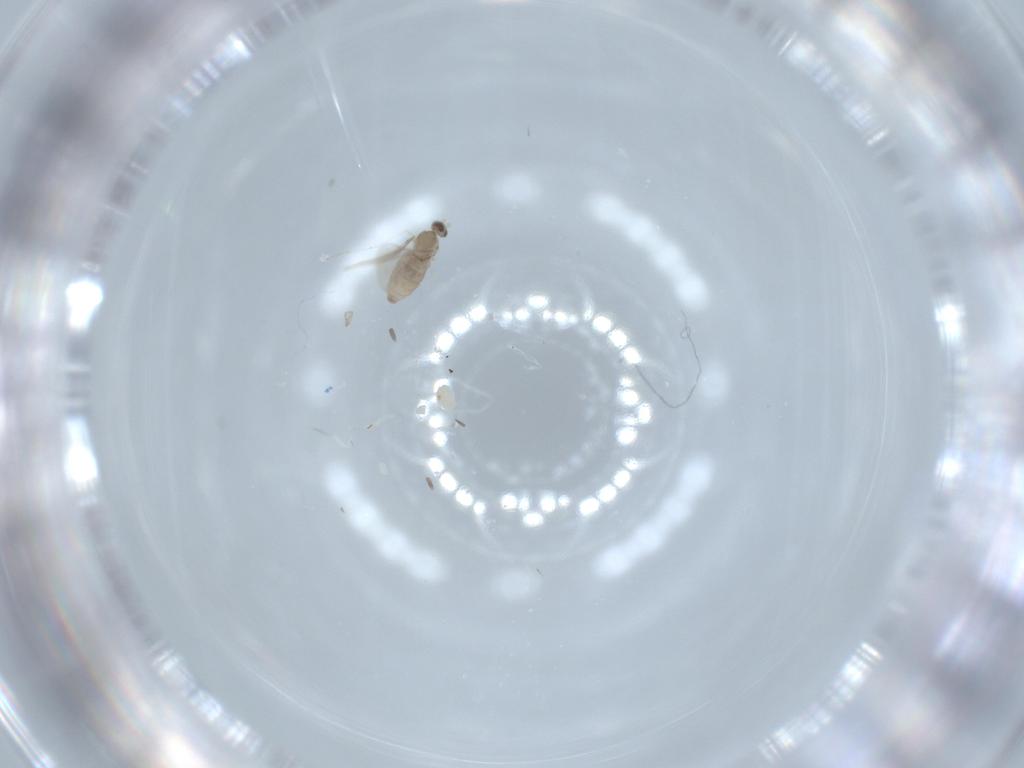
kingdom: Animalia
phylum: Arthropoda
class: Insecta
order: Diptera
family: Cecidomyiidae
